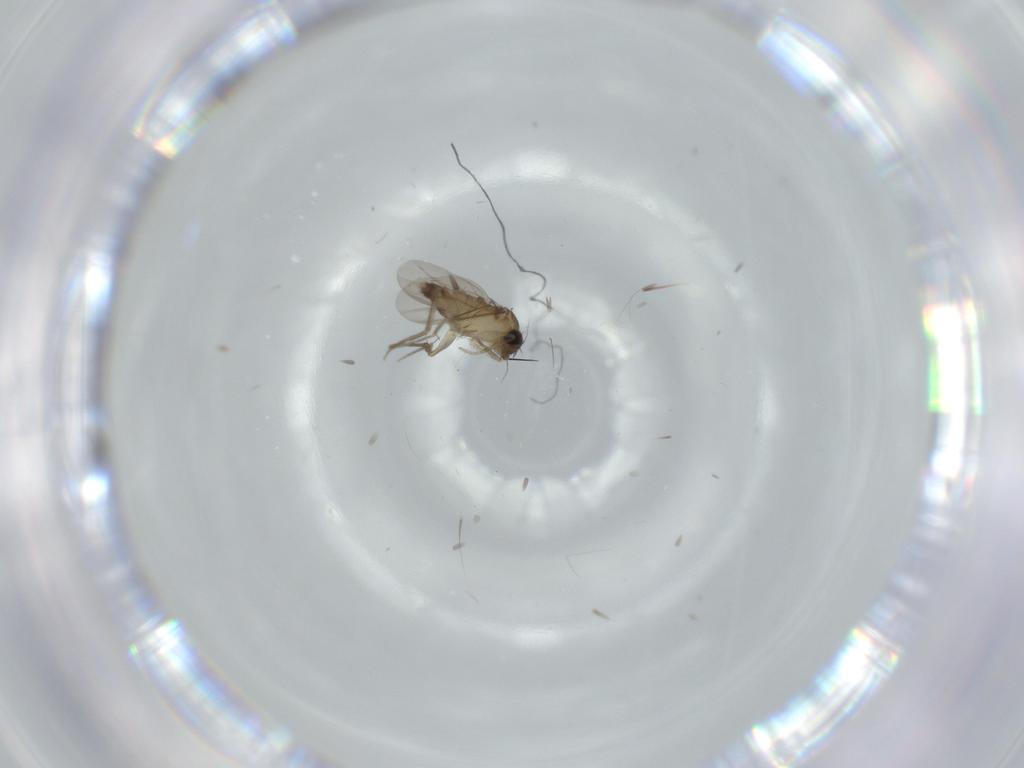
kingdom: Animalia
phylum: Arthropoda
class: Insecta
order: Diptera
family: Phoridae
